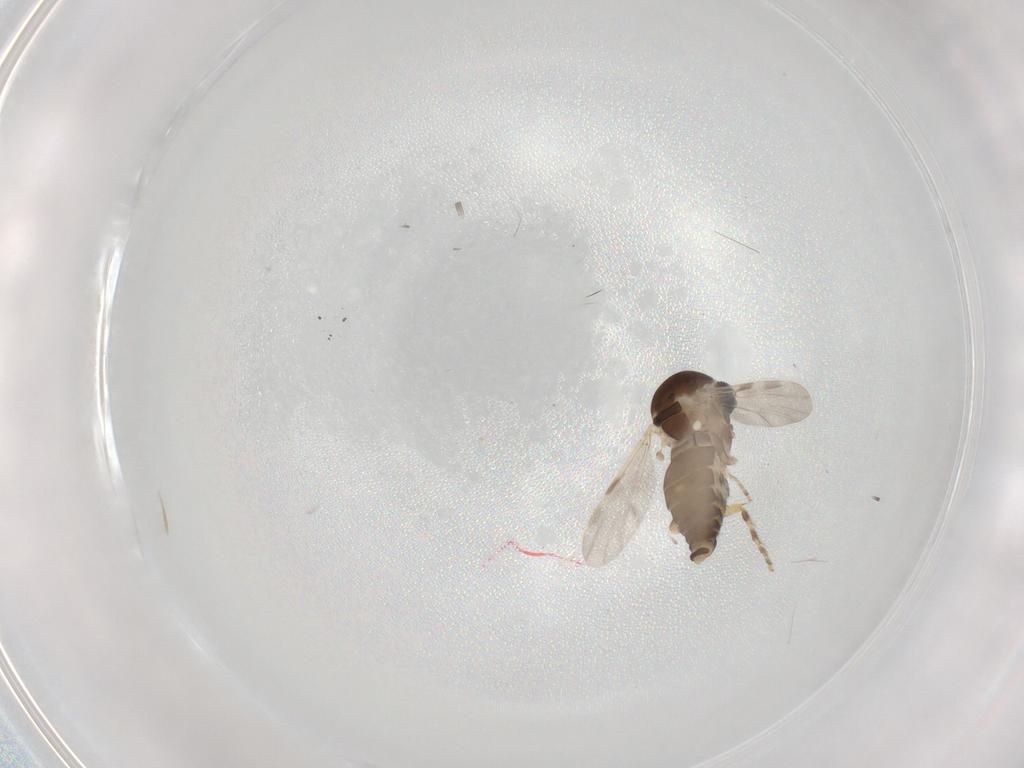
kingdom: Animalia
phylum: Arthropoda
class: Insecta
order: Diptera
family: Ceratopogonidae
